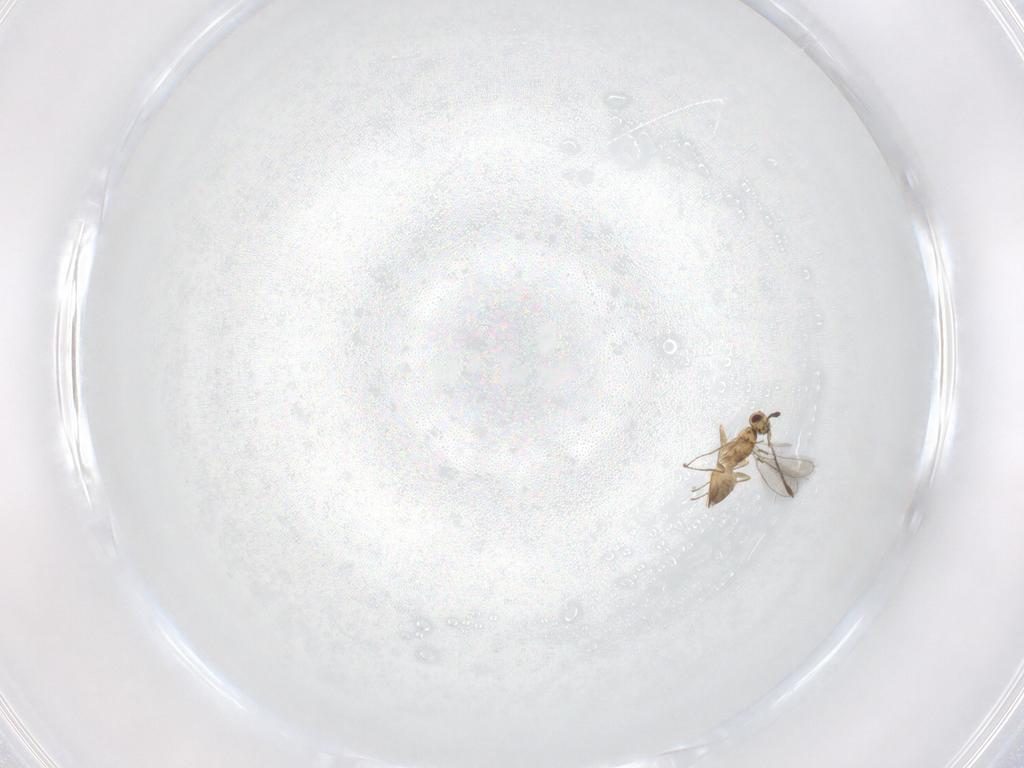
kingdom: Animalia
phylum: Arthropoda
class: Insecta
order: Hymenoptera
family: Mymaridae
